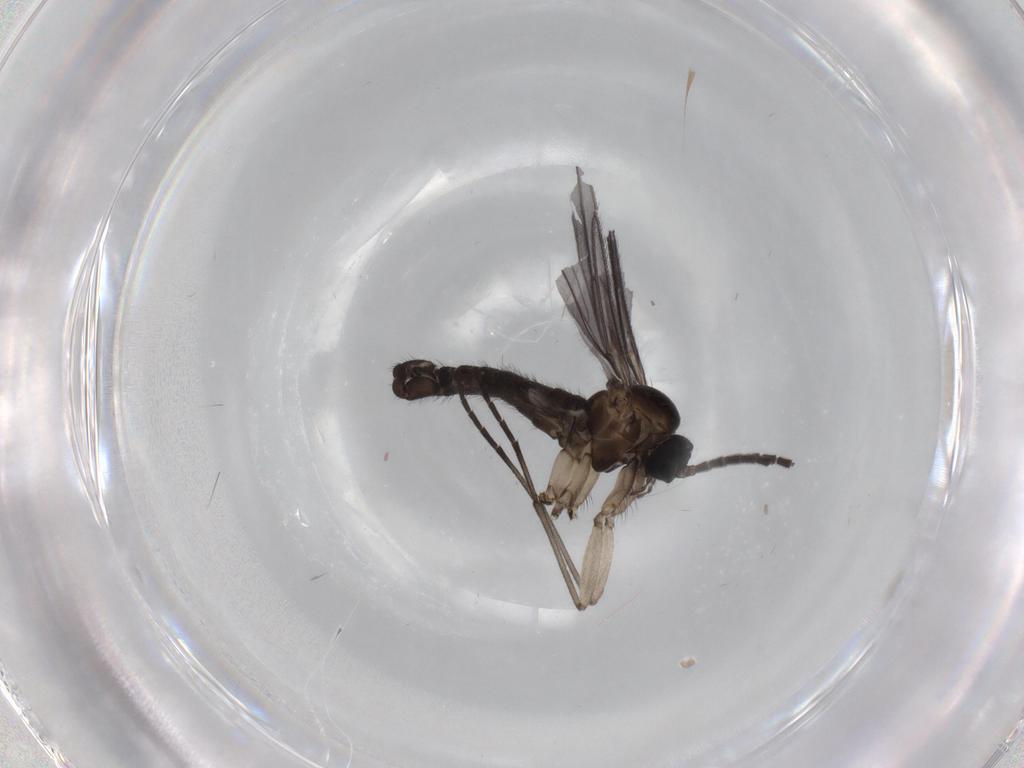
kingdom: Animalia
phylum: Arthropoda
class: Insecta
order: Diptera
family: Sciaridae
